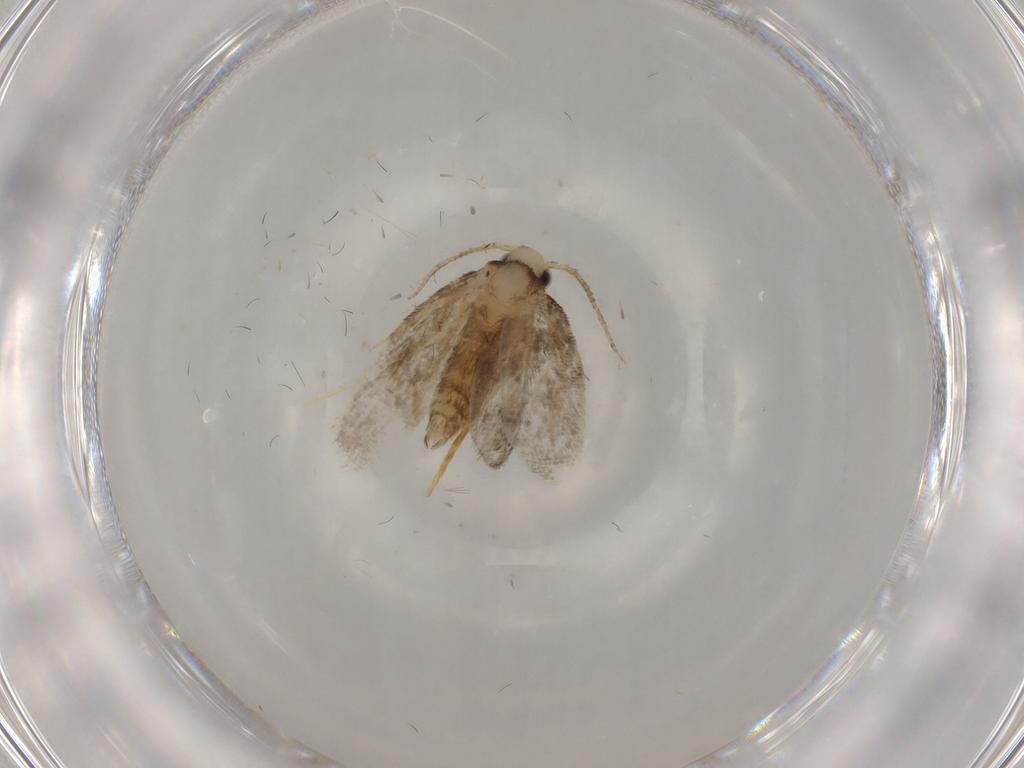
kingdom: Animalia
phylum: Arthropoda
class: Insecta
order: Lepidoptera
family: Psychidae
